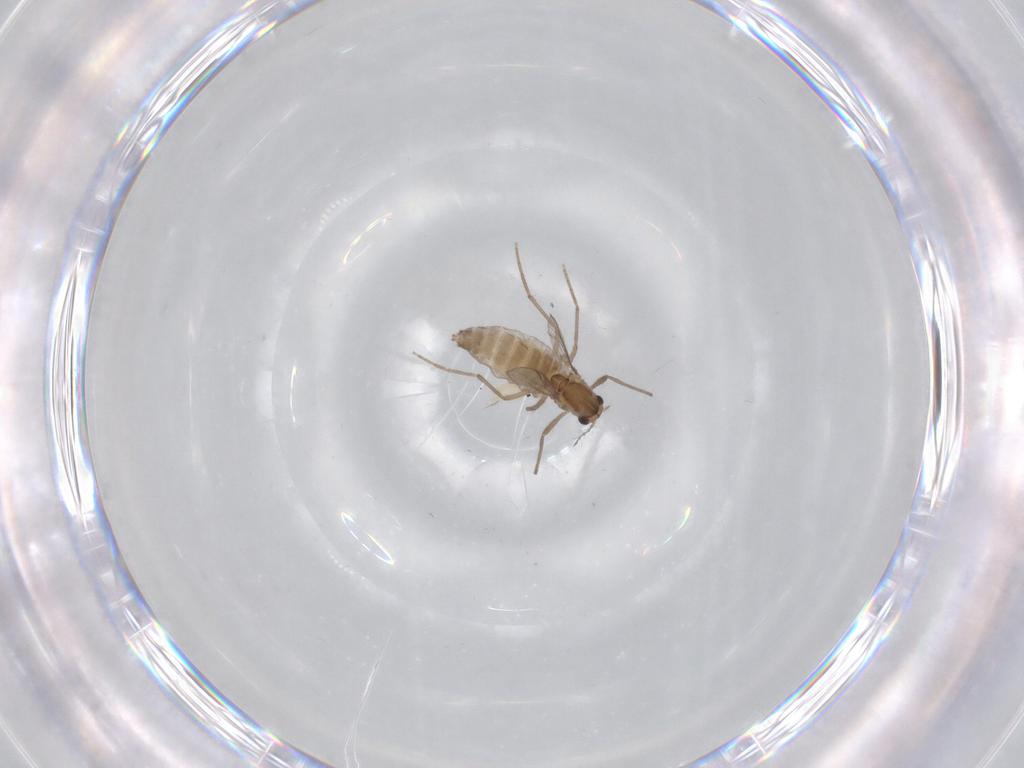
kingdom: Animalia
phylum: Arthropoda
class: Insecta
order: Diptera
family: Chironomidae
